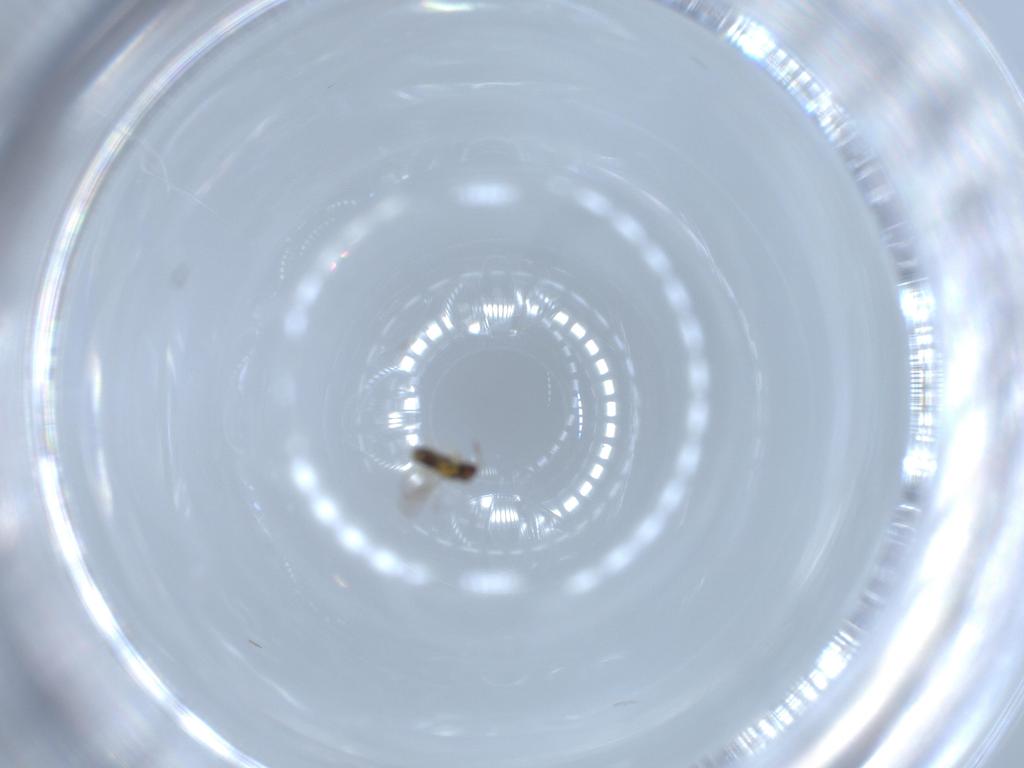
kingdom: Animalia
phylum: Arthropoda
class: Insecta
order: Hymenoptera
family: Aphelinidae
